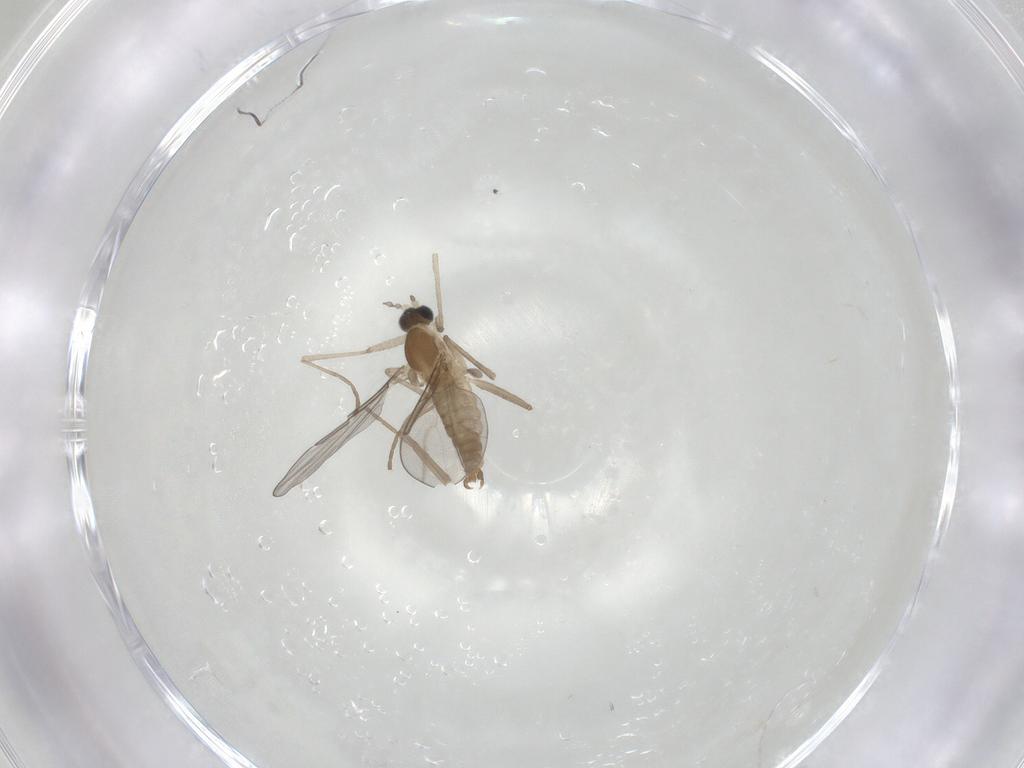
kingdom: Animalia
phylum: Arthropoda
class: Insecta
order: Diptera
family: Cecidomyiidae
